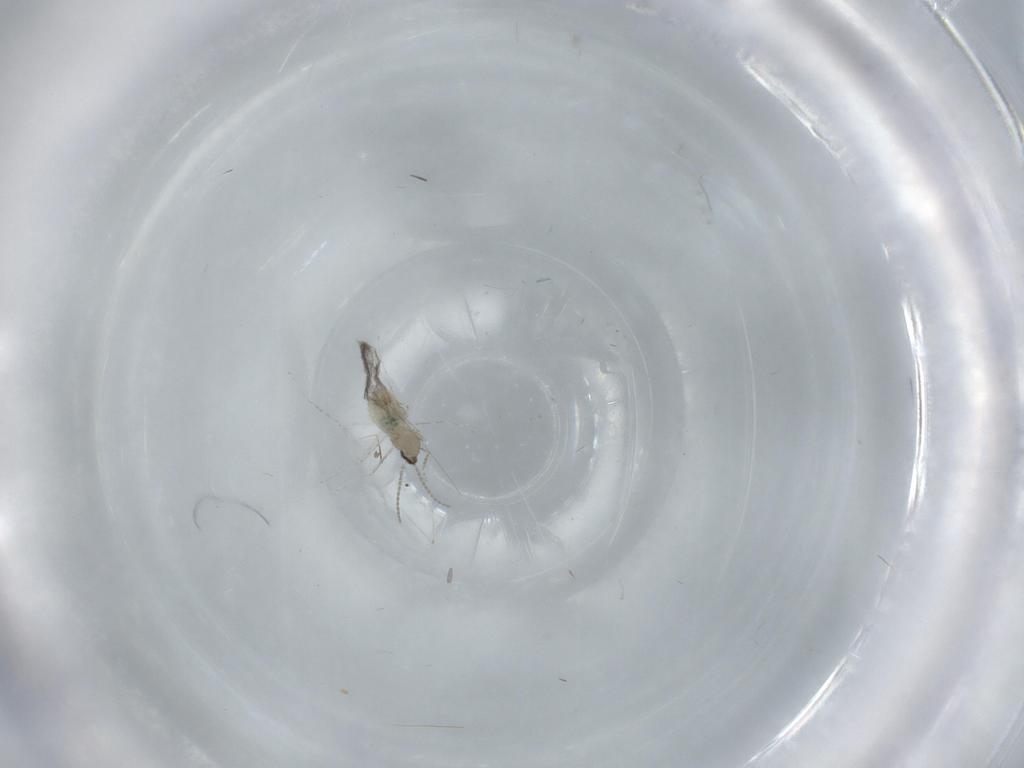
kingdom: Animalia
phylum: Arthropoda
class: Insecta
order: Diptera
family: Cecidomyiidae
